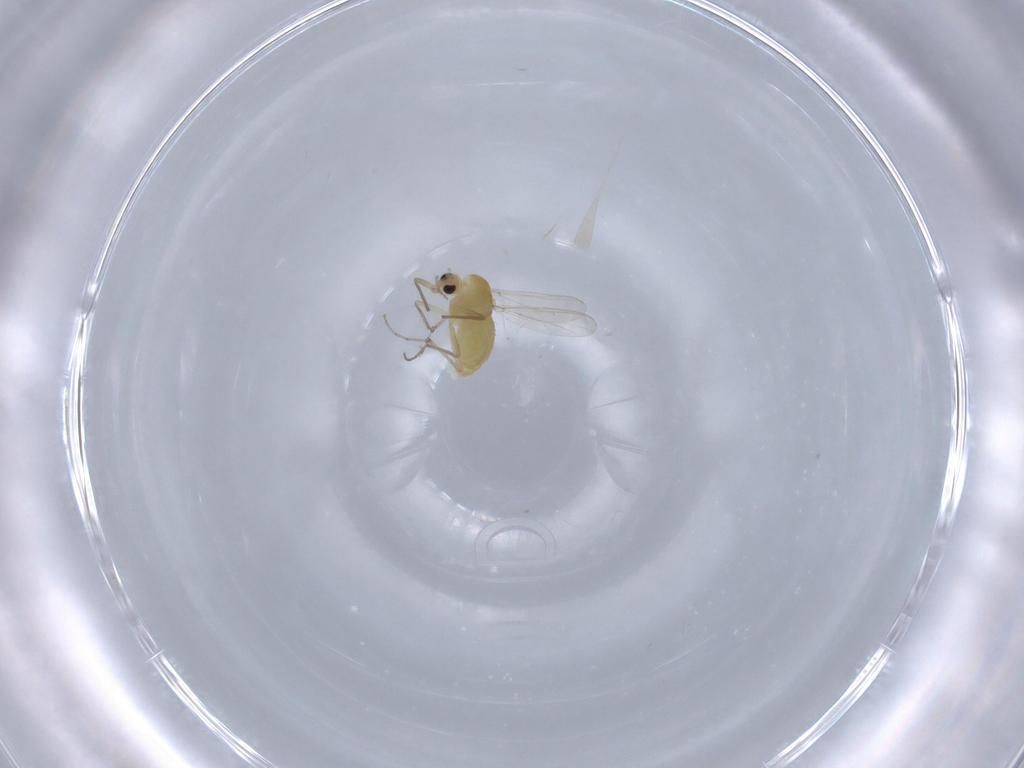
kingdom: Animalia
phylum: Arthropoda
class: Insecta
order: Diptera
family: Chironomidae
